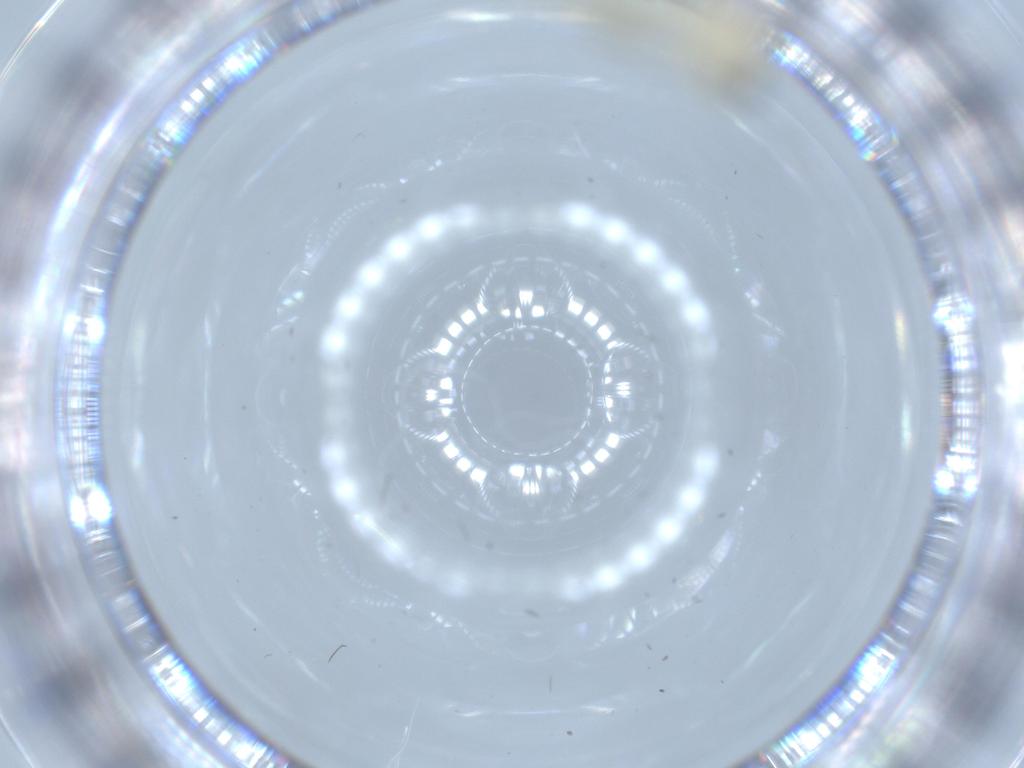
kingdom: Animalia
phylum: Arthropoda
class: Insecta
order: Diptera
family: Chironomidae
